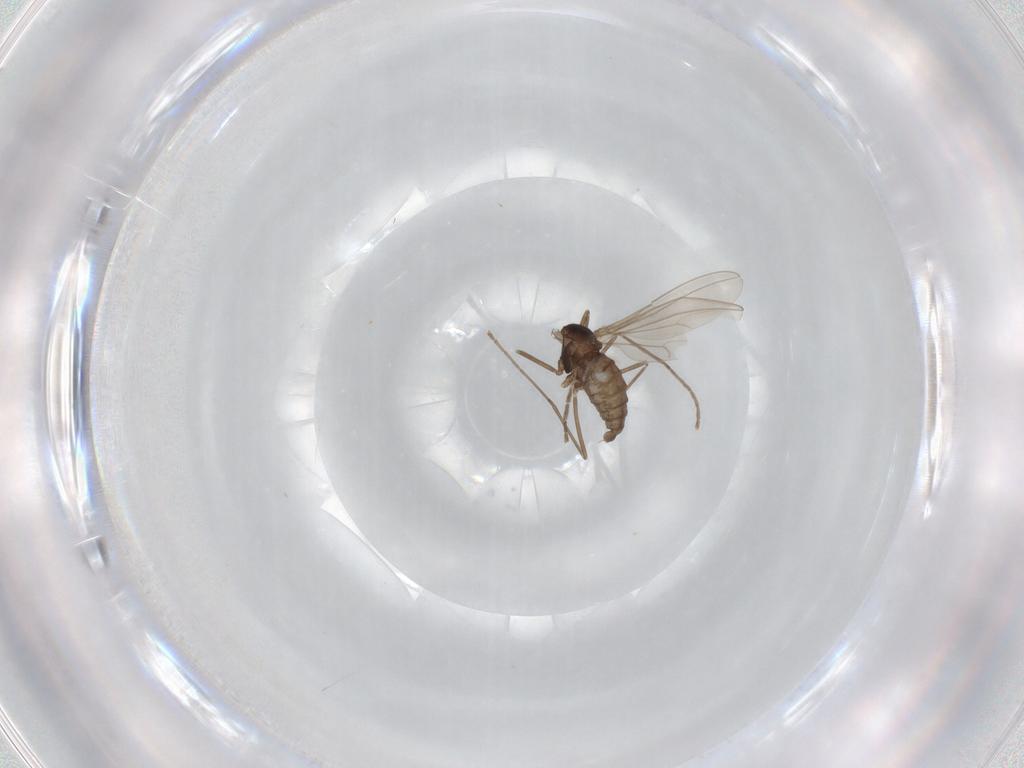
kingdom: Animalia
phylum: Arthropoda
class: Insecta
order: Diptera
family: Cecidomyiidae
